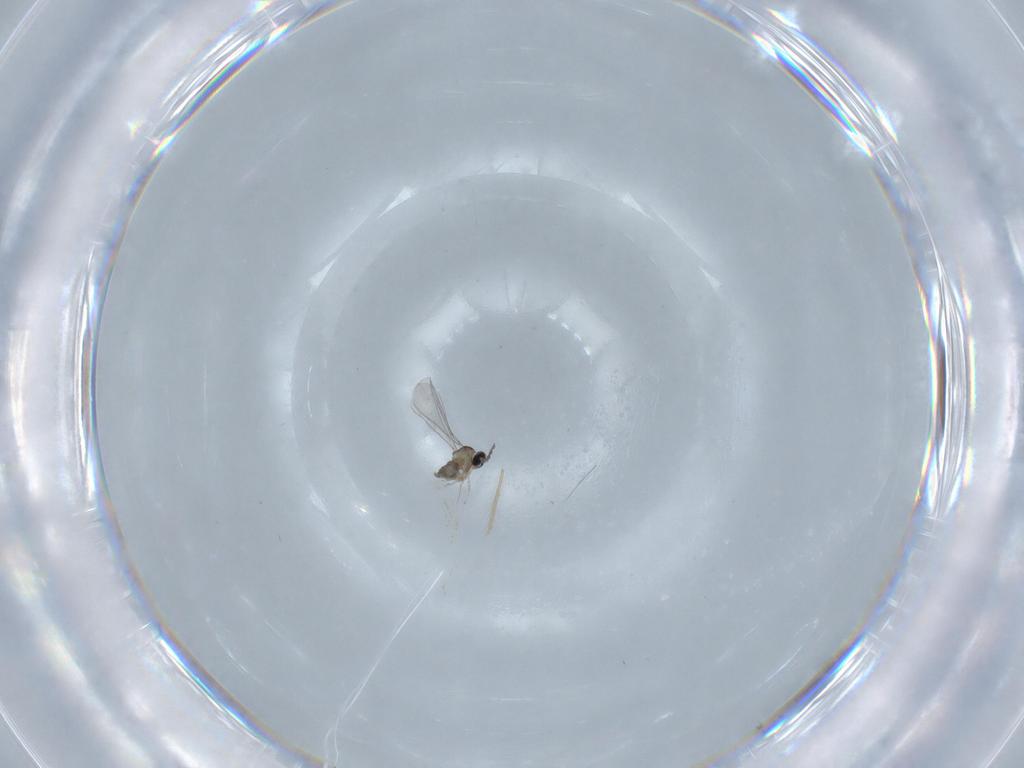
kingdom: Animalia
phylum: Arthropoda
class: Insecta
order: Diptera
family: Cecidomyiidae
